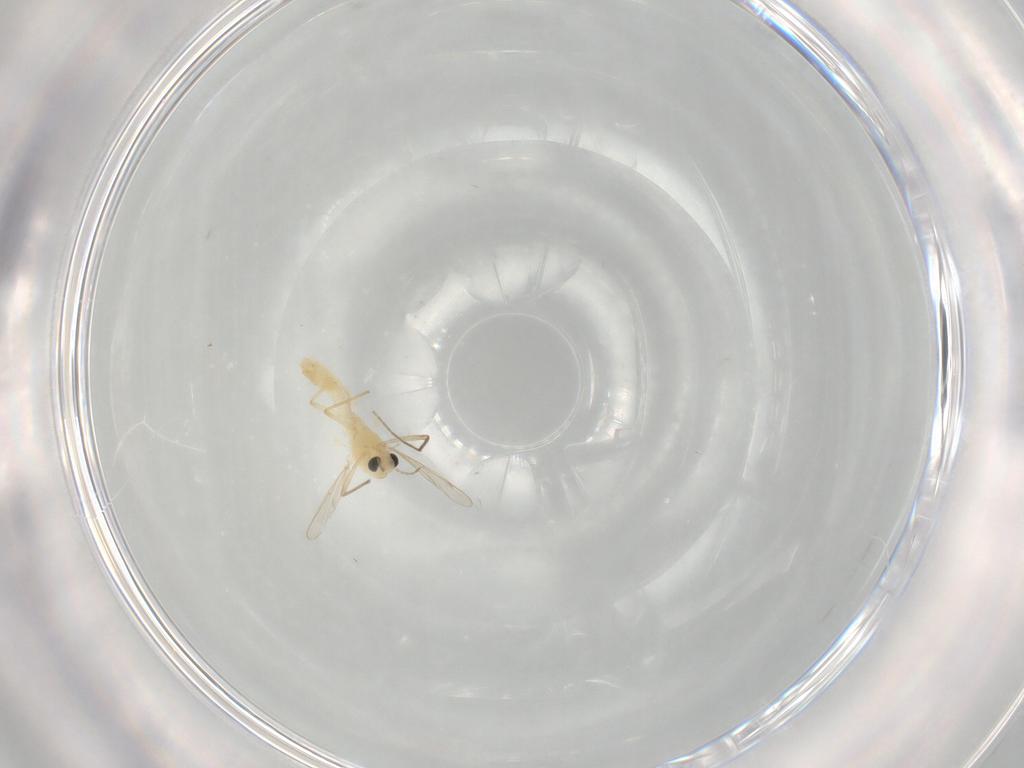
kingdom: Animalia
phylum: Arthropoda
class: Insecta
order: Diptera
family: Chironomidae
